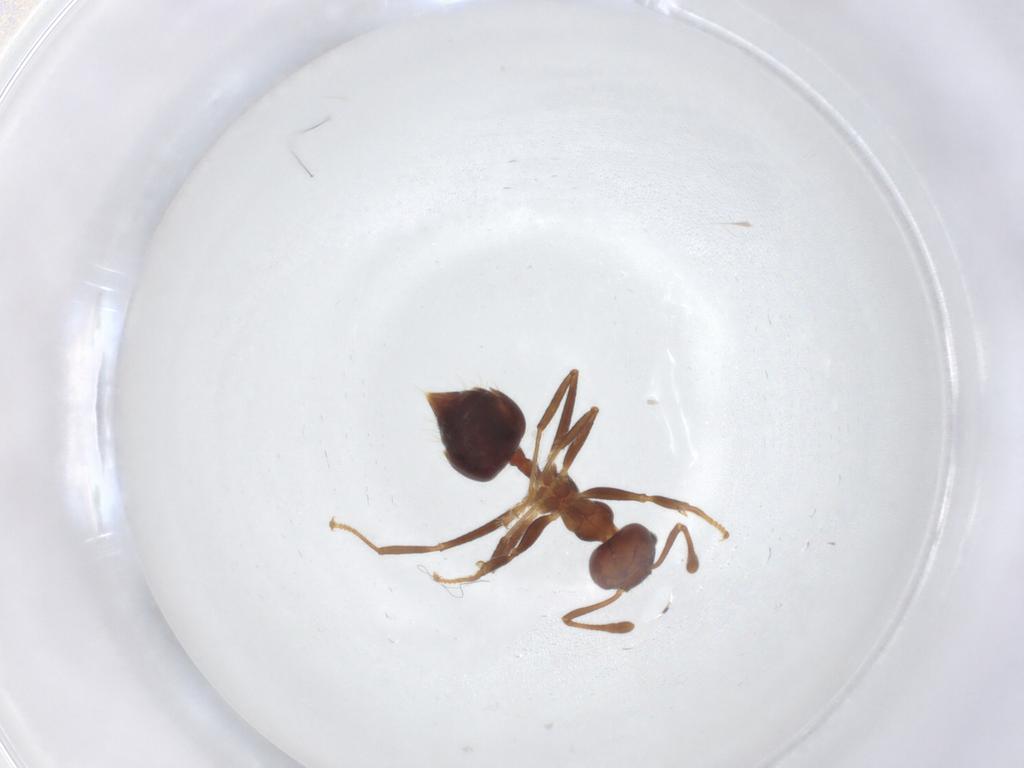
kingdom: Animalia
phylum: Arthropoda
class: Insecta
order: Hymenoptera
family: Formicidae
